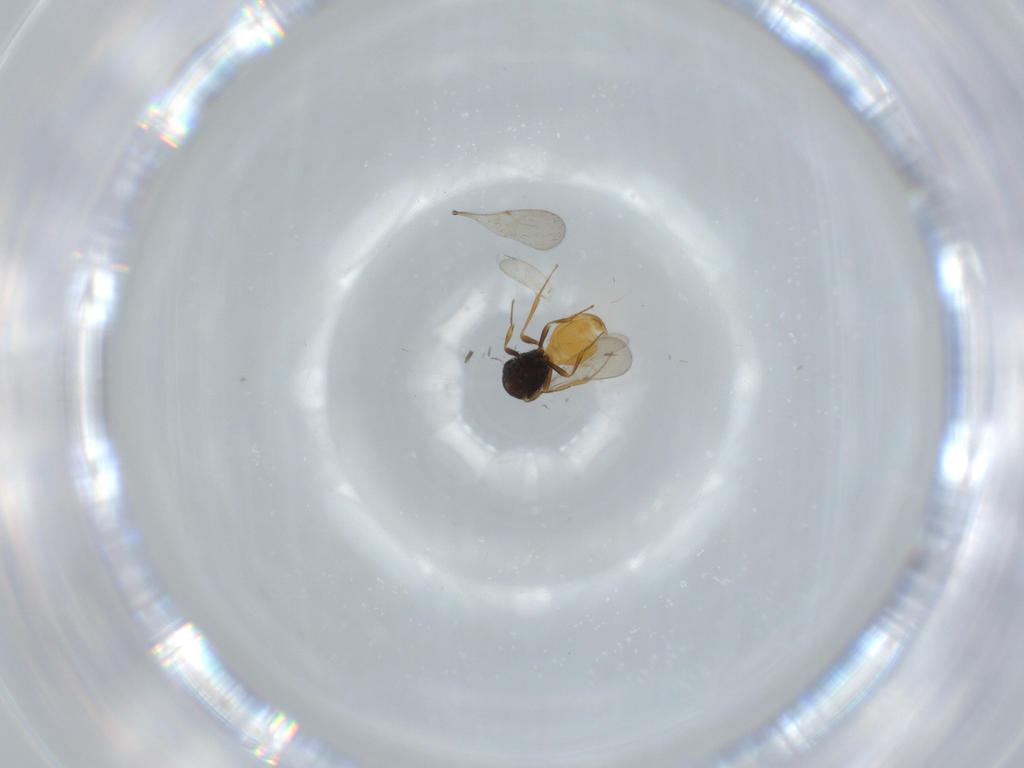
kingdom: Animalia
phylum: Arthropoda
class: Insecta
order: Hymenoptera
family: Scelionidae
